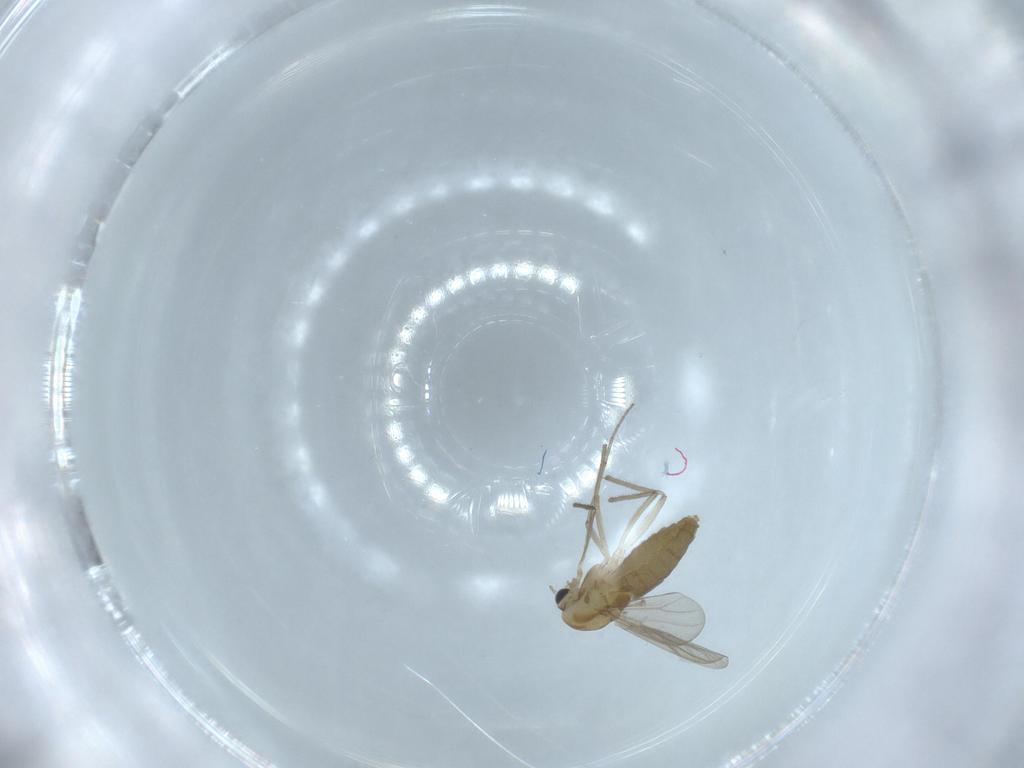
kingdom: Animalia
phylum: Arthropoda
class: Insecta
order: Diptera
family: Chironomidae
